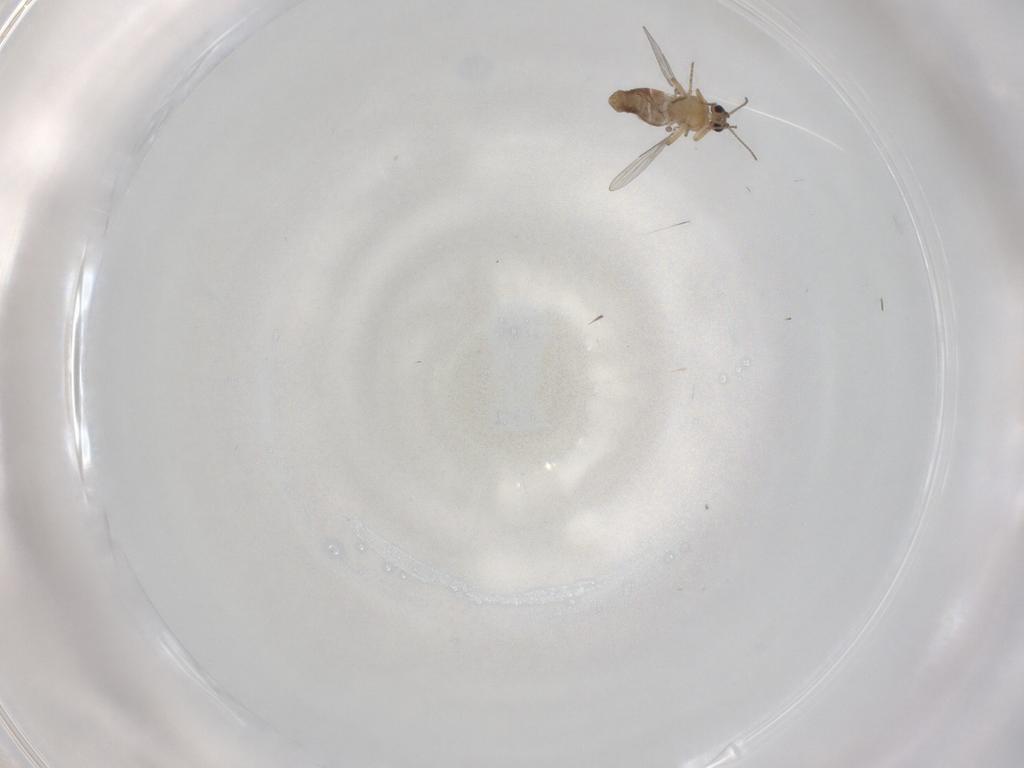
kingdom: Animalia
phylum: Arthropoda
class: Insecta
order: Diptera
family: Ceratopogonidae
